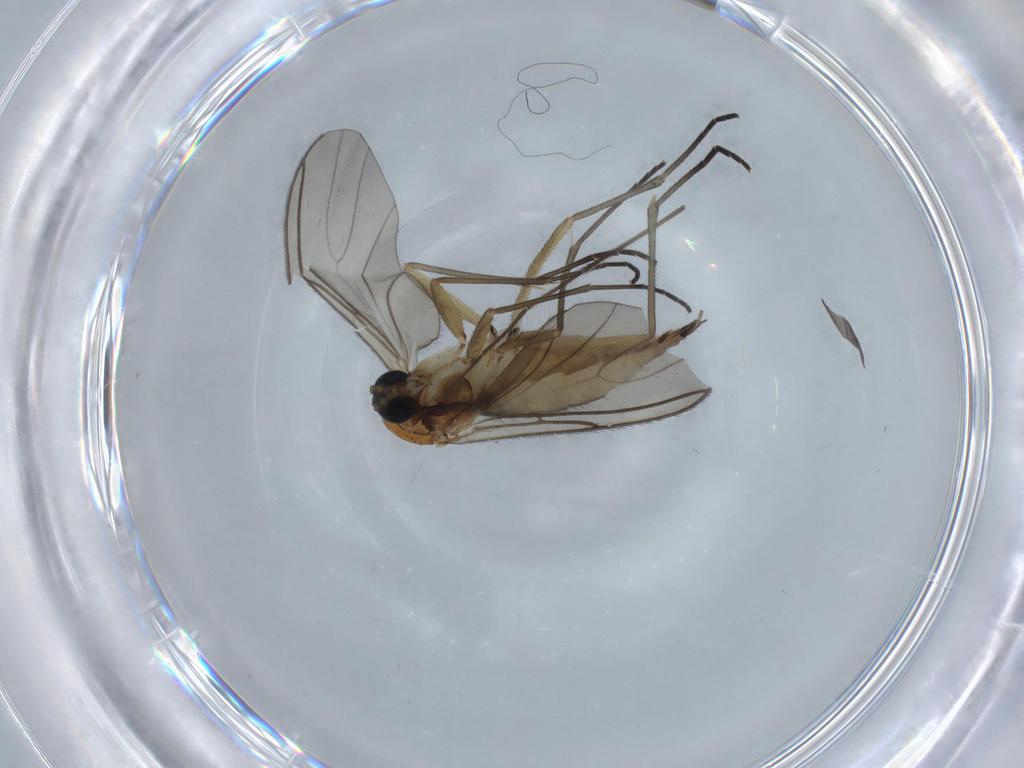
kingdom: Animalia
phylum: Arthropoda
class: Insecta
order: Diptera
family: Sciaridae
